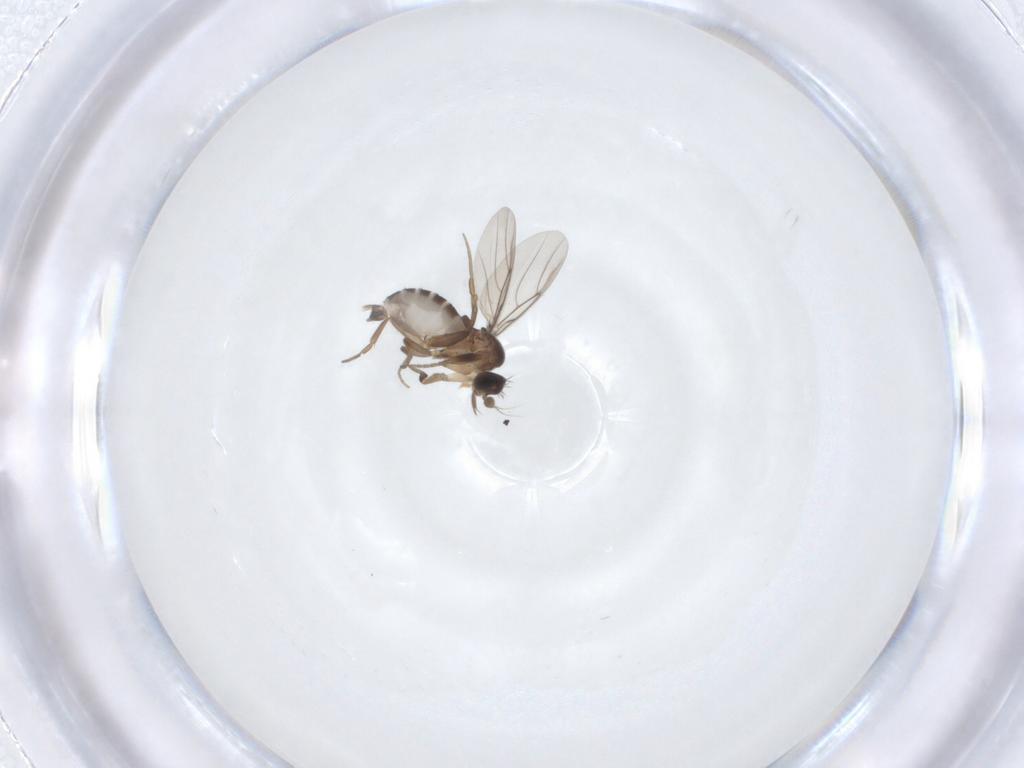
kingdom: Animalia
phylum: Arthropoda
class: Insecta
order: Diptera
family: Phoridae
